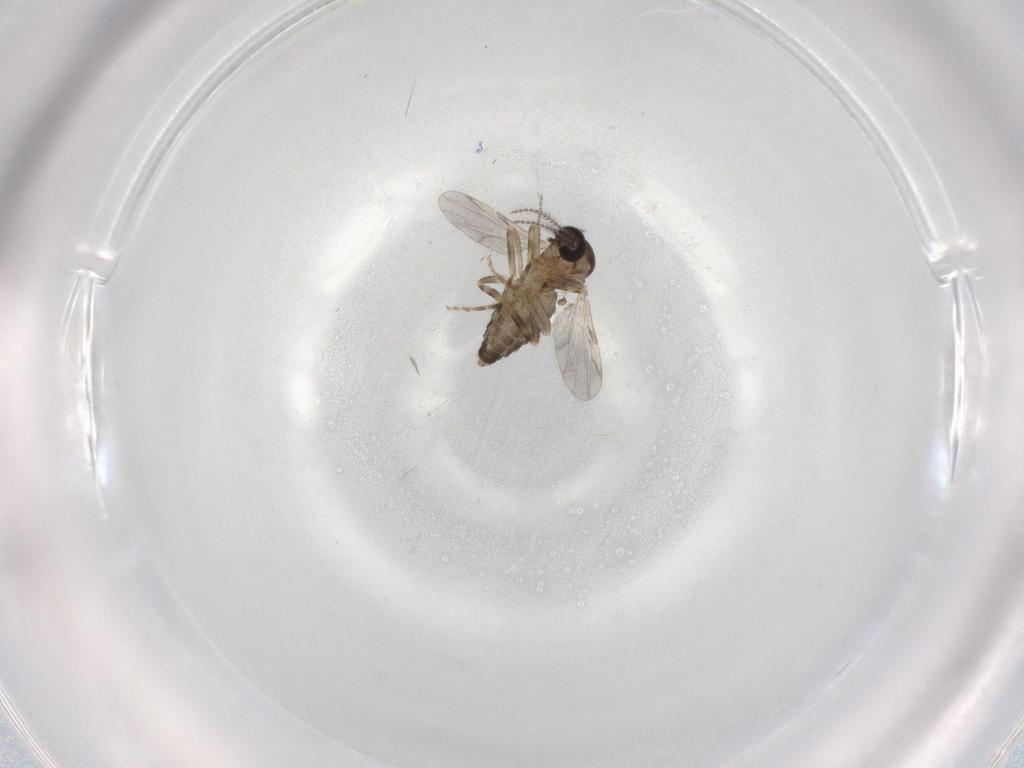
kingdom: Animalia
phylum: Arthropoda
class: Insecta
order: Diptera
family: Ceratopogonidae
